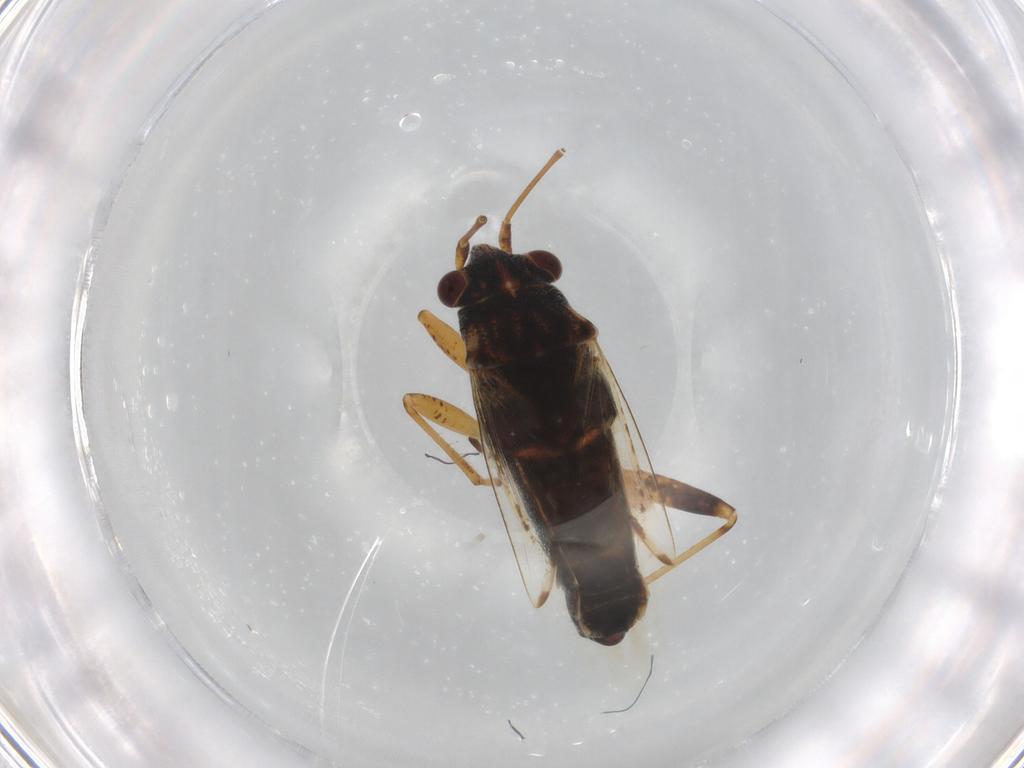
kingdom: Animalia
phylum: Arthropoda
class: Insecta
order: Hemiptera
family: Lygaeidae
